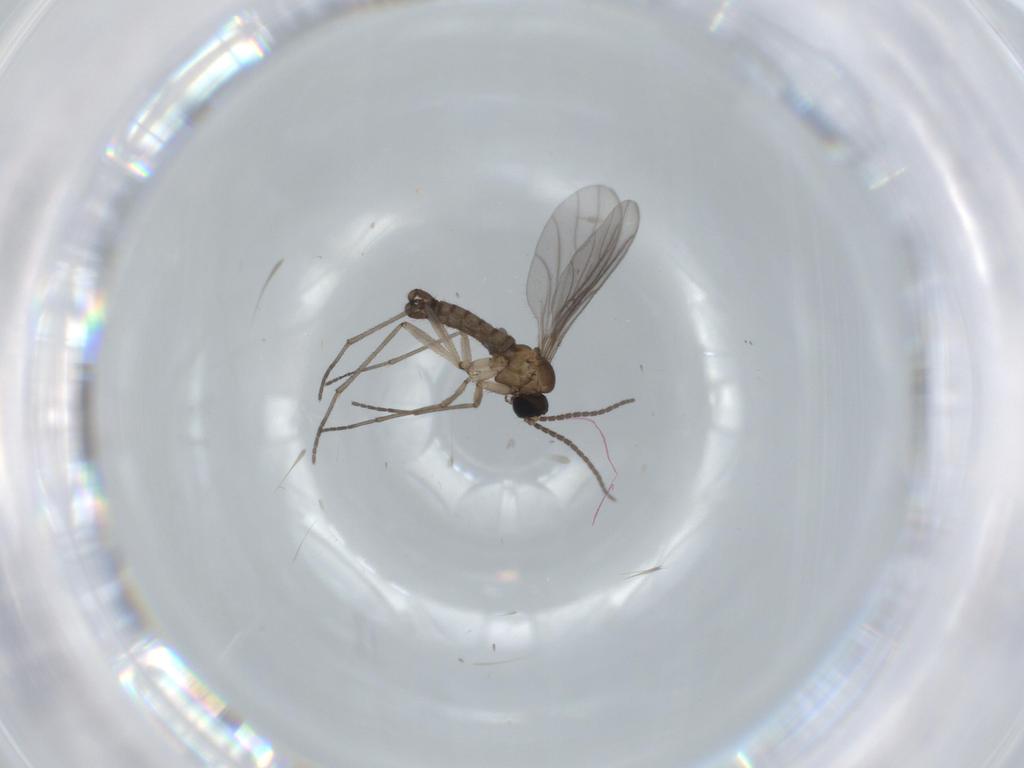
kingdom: Animalia
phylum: Arthropoda
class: Insecta
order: Diptera
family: Sciaridae
